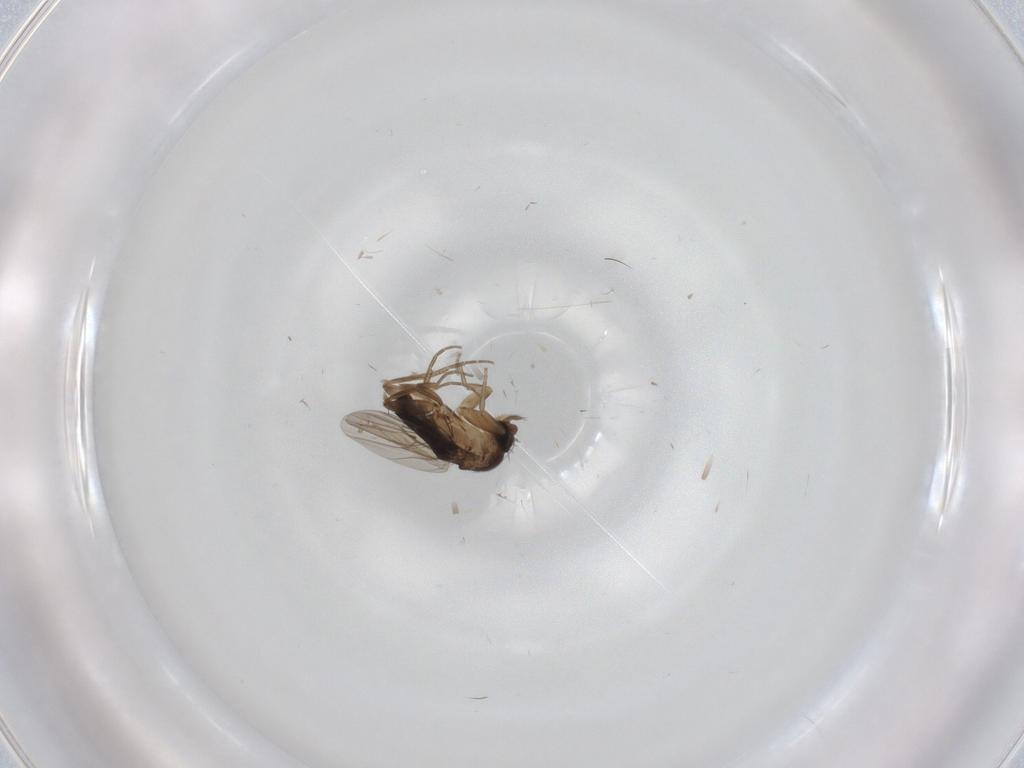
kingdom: Animalia
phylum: Arthropoda
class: Insecta
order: Diptera
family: Phoridae
